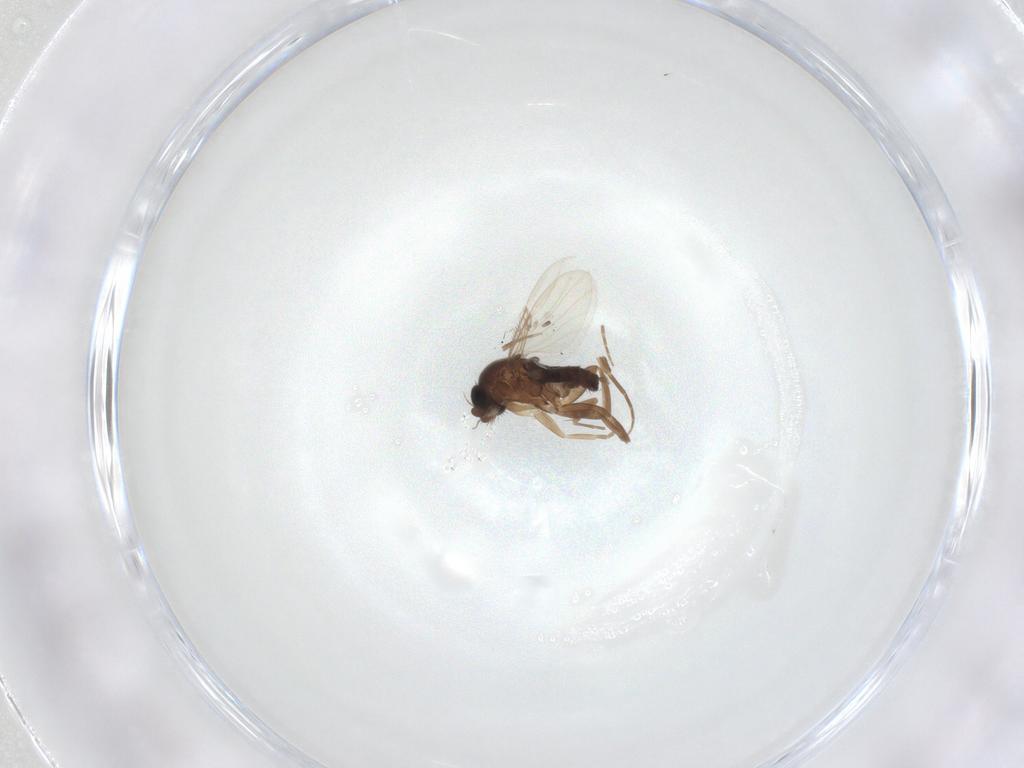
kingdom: Animalia
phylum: Arthropoda
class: Insecta
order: Diptera
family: Phoridae
